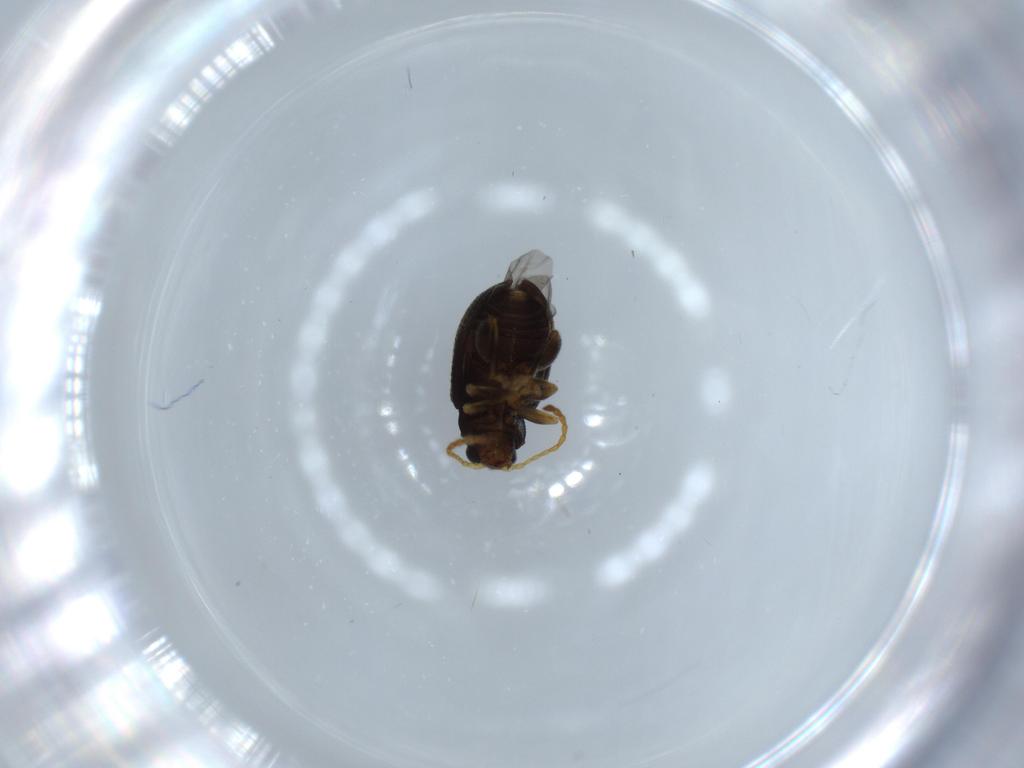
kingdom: Animalia
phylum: Arthropoda
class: Insecta
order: Coleoptera
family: Chrysomelidae
